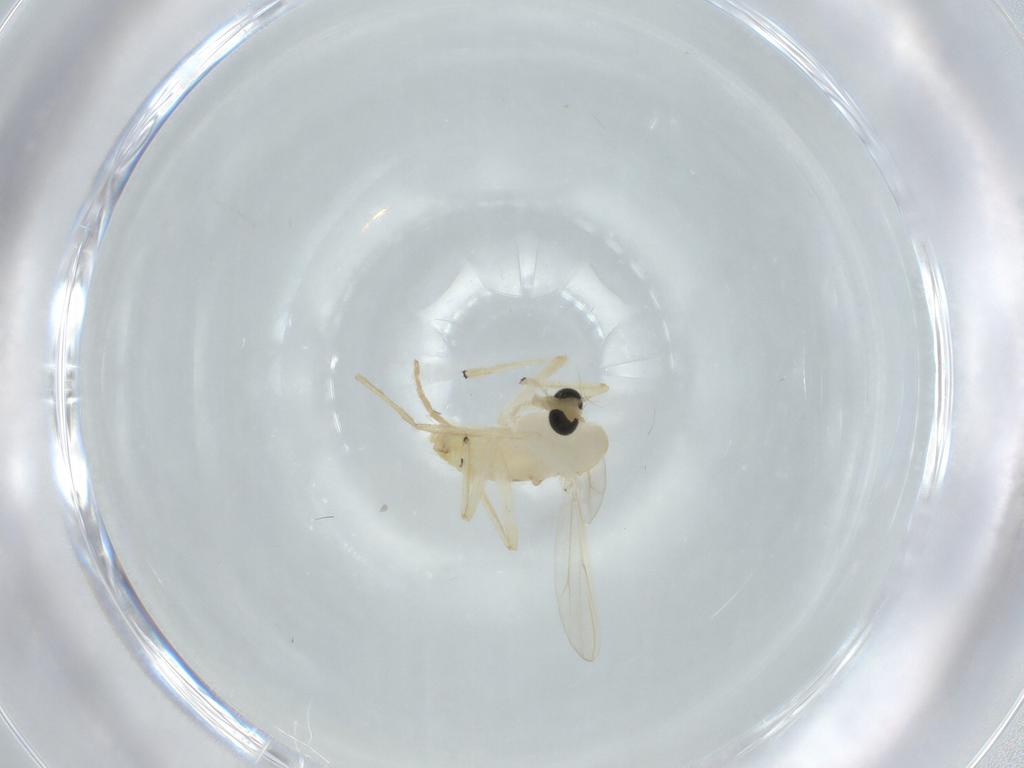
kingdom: Animalia
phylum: Arthropoda
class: Insecta
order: Diptera
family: Chironomidae
